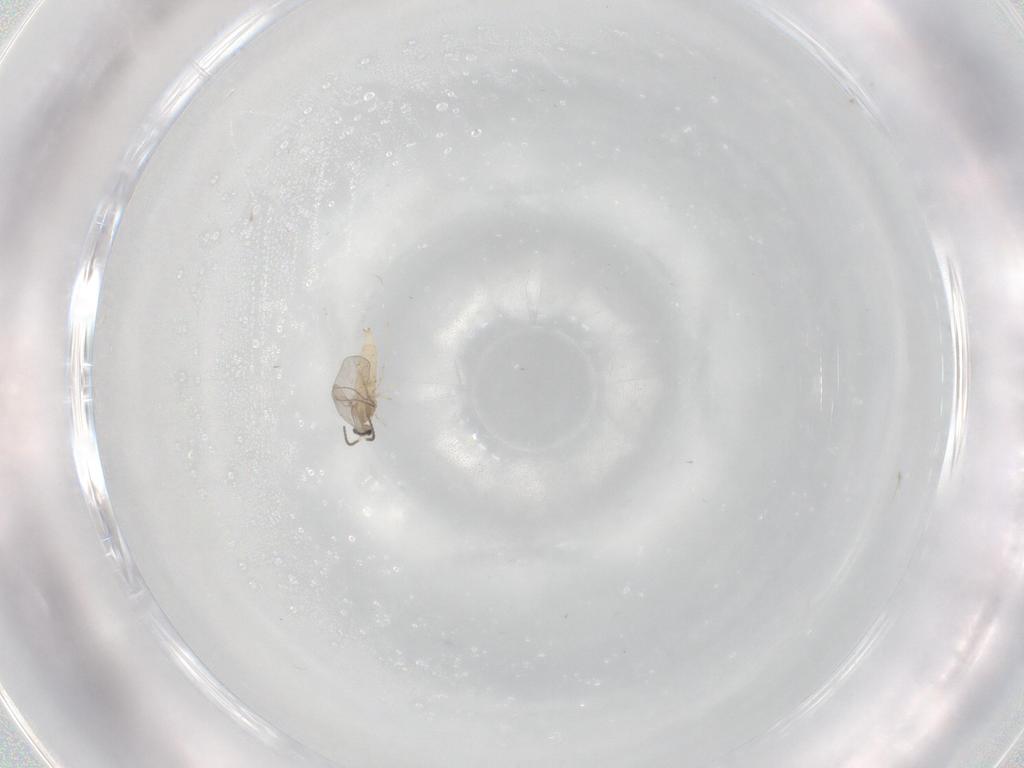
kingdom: Animalia
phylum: Arthropoda
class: Insecta
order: Diptera
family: Cecidomyiidae
